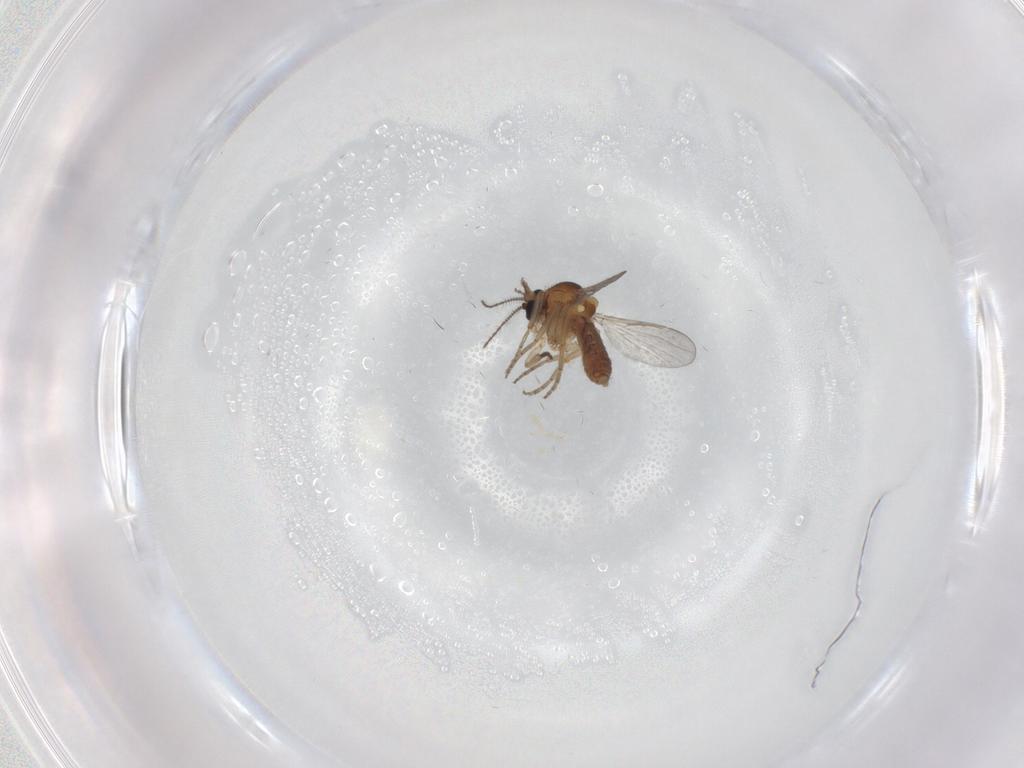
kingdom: Animalia
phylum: Arthropoda
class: Insecta
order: Diptera
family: Ceratopogonidae
